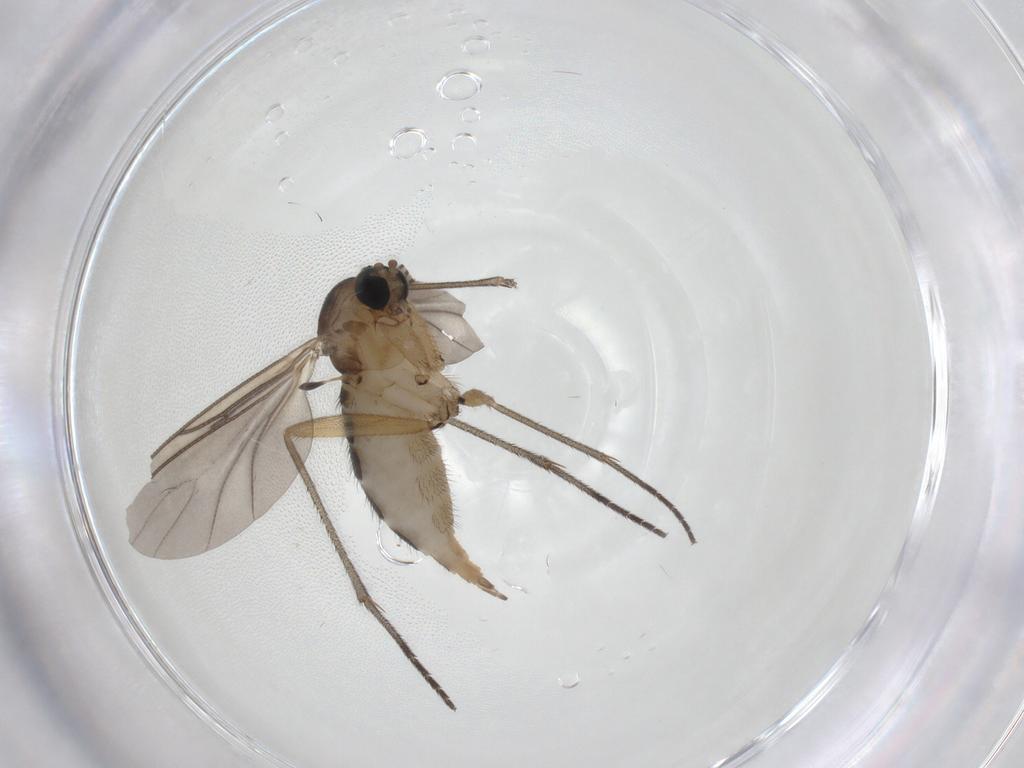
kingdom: Animalia
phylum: Arthropoda
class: Insecta
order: Diptera
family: Sciaridae
